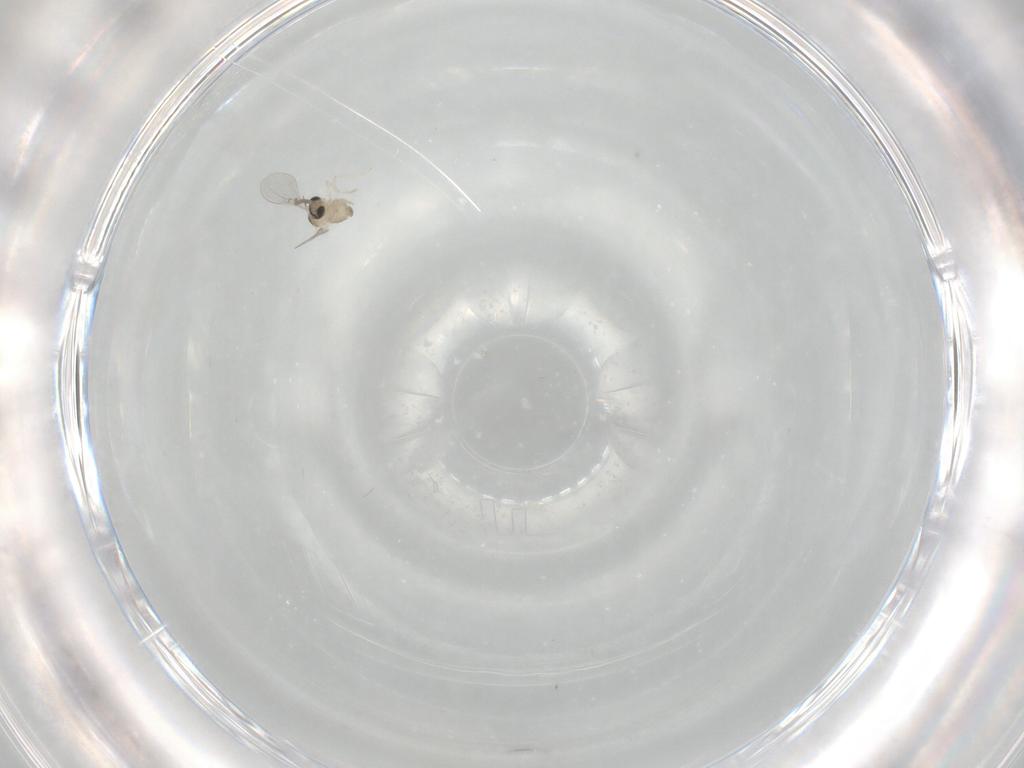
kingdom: Animalia
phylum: Arthropoda
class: Insecta
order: Diptera
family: Cecidomyiidae
